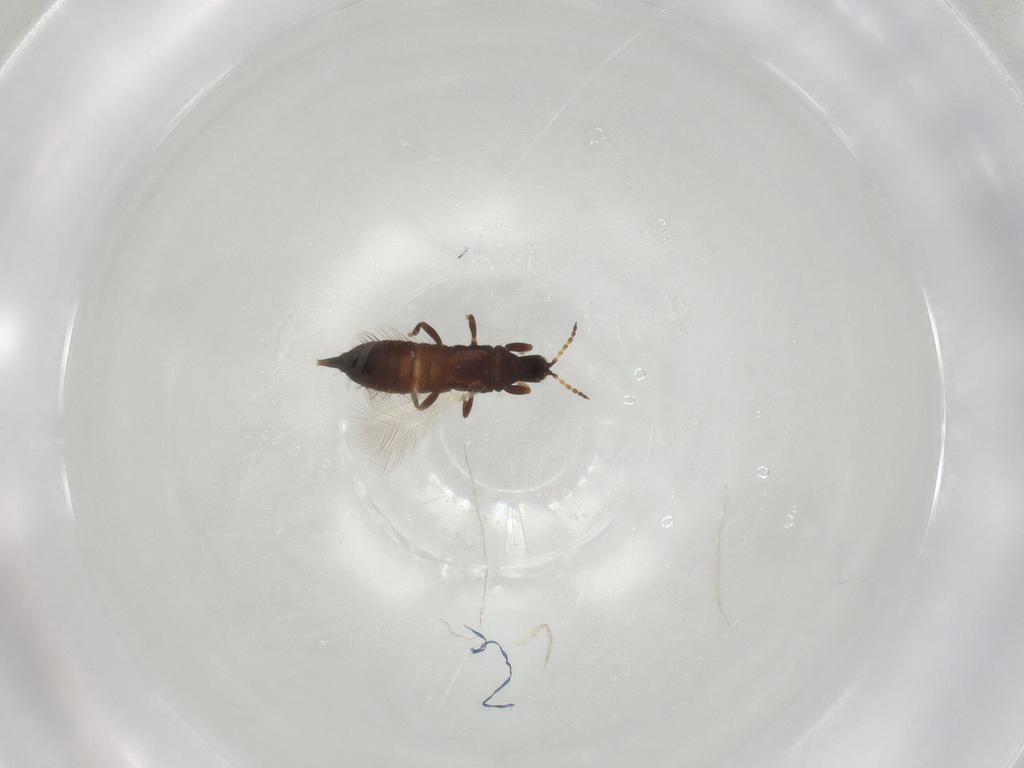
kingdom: Animalia
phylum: Arthropoda
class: Insecta
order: Thysanoptera
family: Phlaeothripidae
